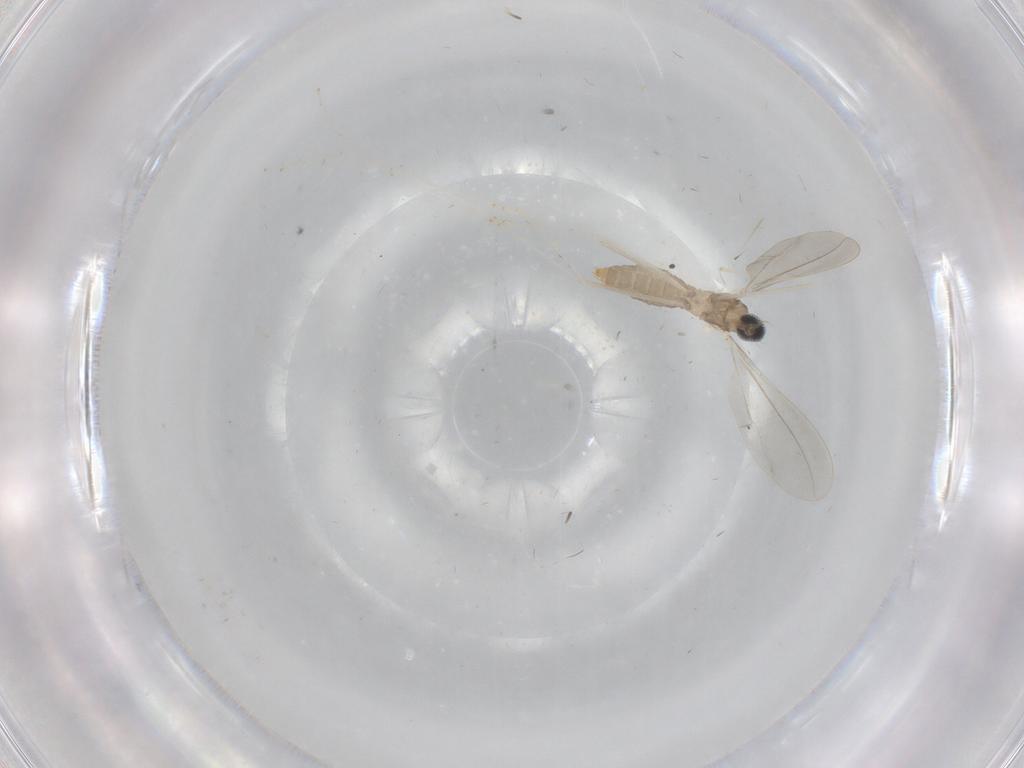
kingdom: Animalia
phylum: Arthropoda
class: Insecta
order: Diptera
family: Cecidomyiidae
